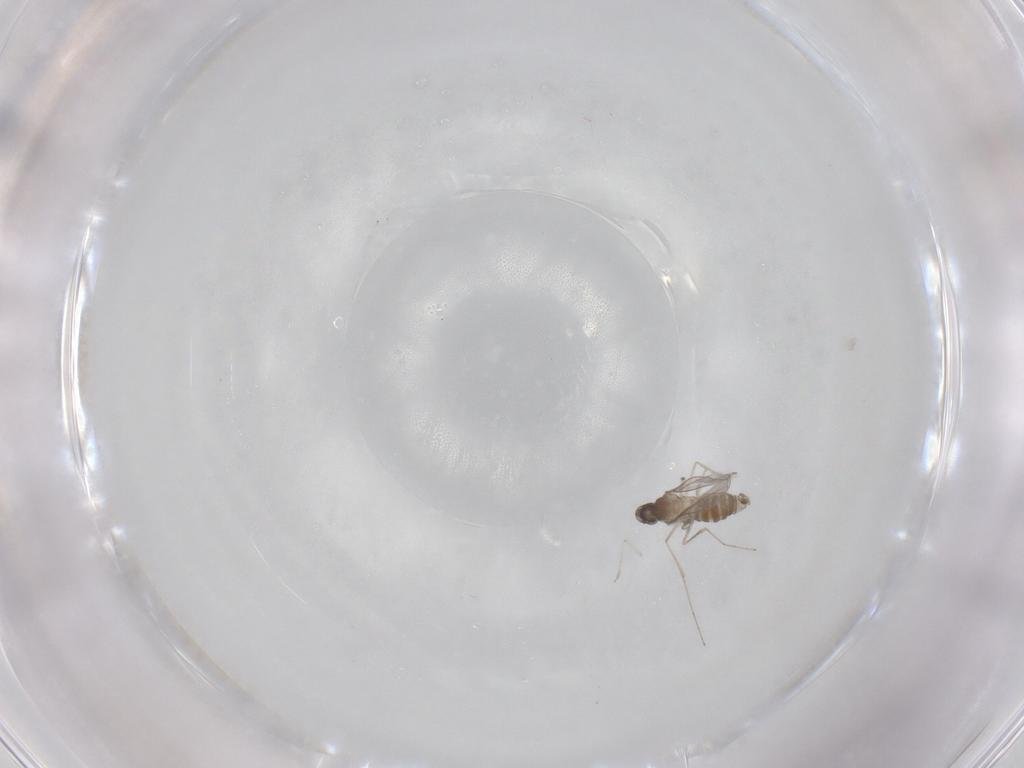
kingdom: Animalia
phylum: Arthropoda
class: Insecta
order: Diptera
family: Cecidomyiidae
